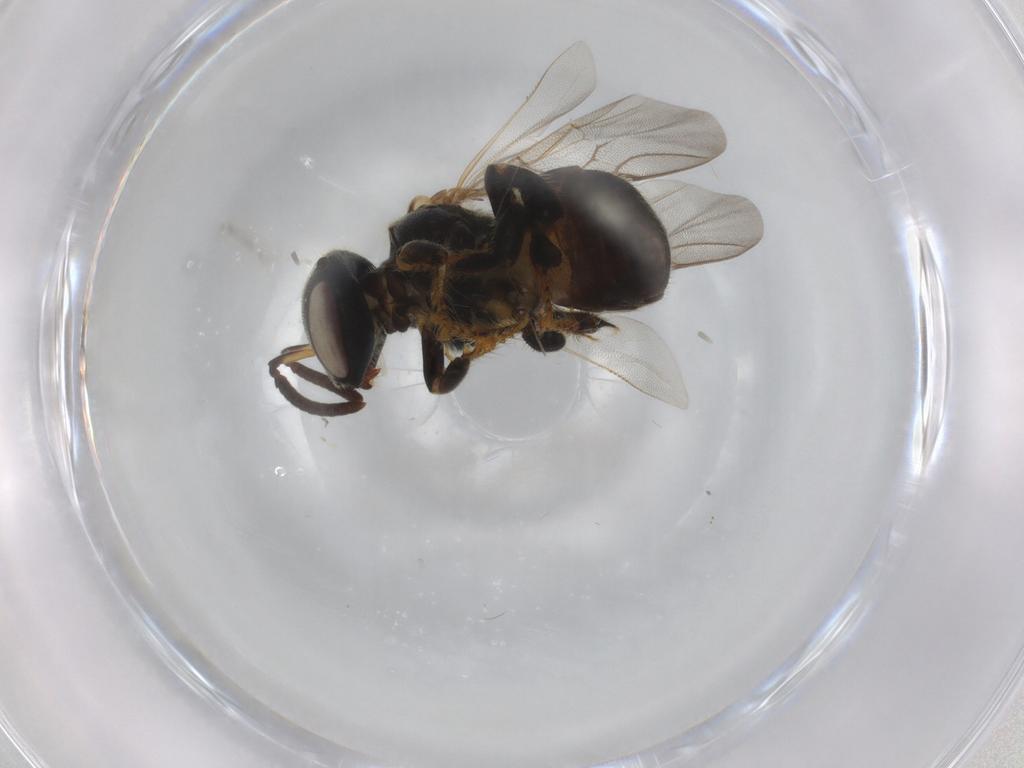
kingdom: Animalia
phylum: Arthropoda
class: Insecta
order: Hymenoptera
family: Apidae
